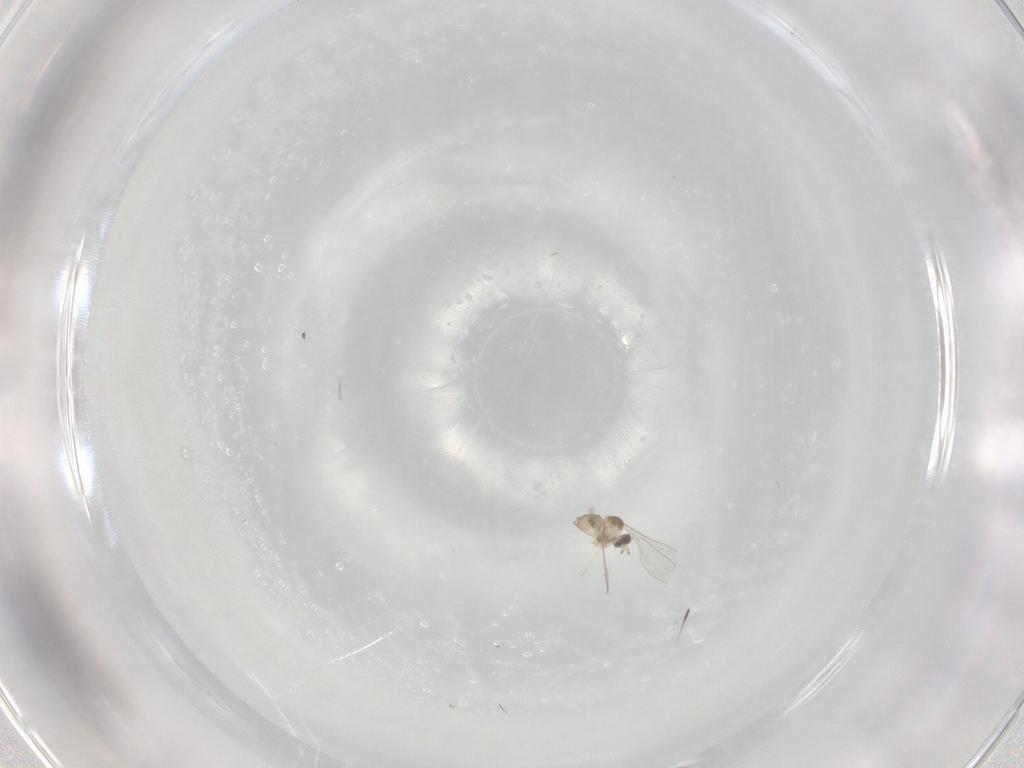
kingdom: Animalia
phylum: Arthropoda
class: Insecta
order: Diptera
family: Cecidomyiidae
